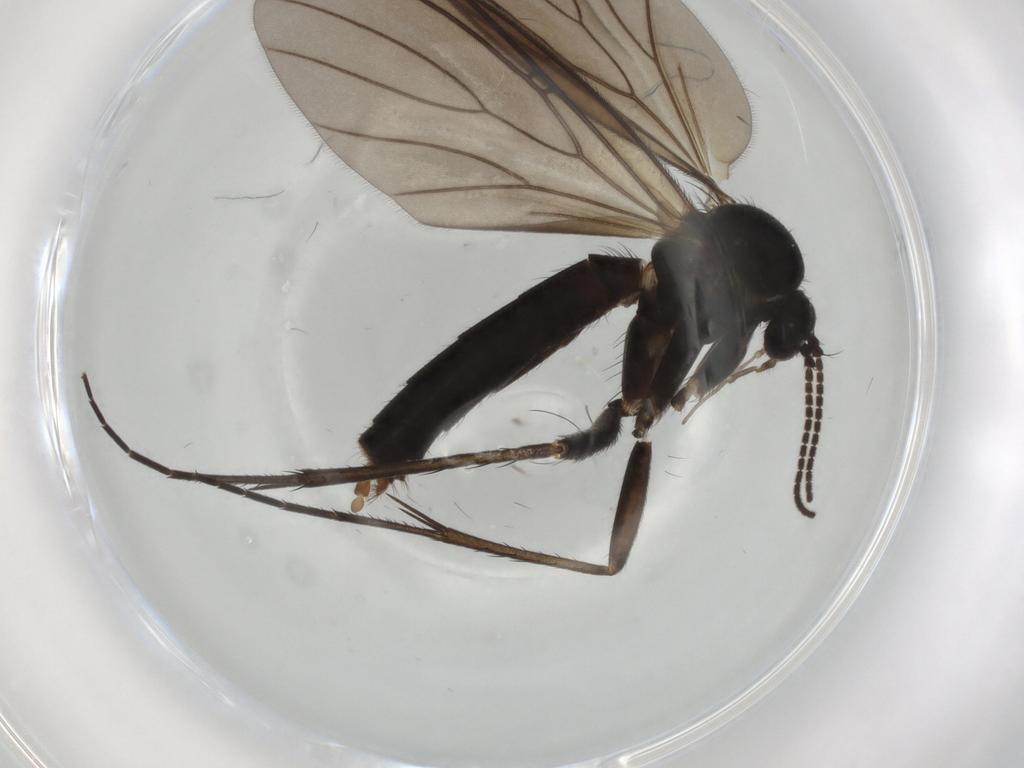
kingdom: Animalia
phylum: Arthropoda
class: Insecta
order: Diptera
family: Mycetophilidae
